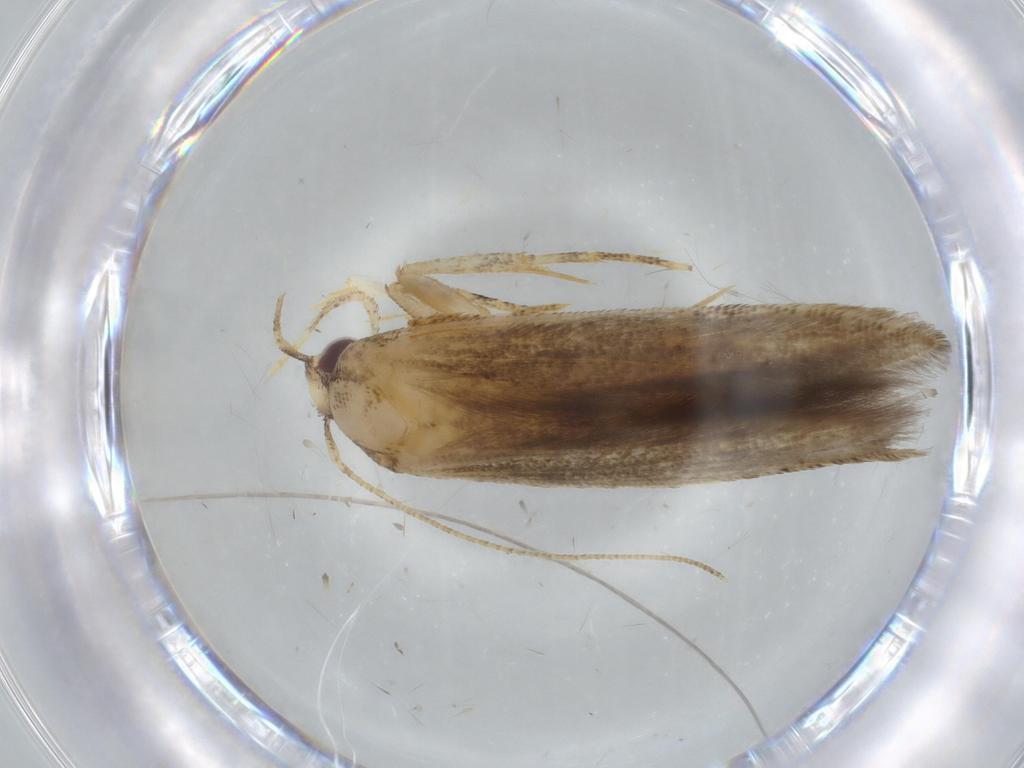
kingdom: Animalia
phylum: Arthropoda
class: Insecta
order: Lepidoptera
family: Cosmopterigidae
